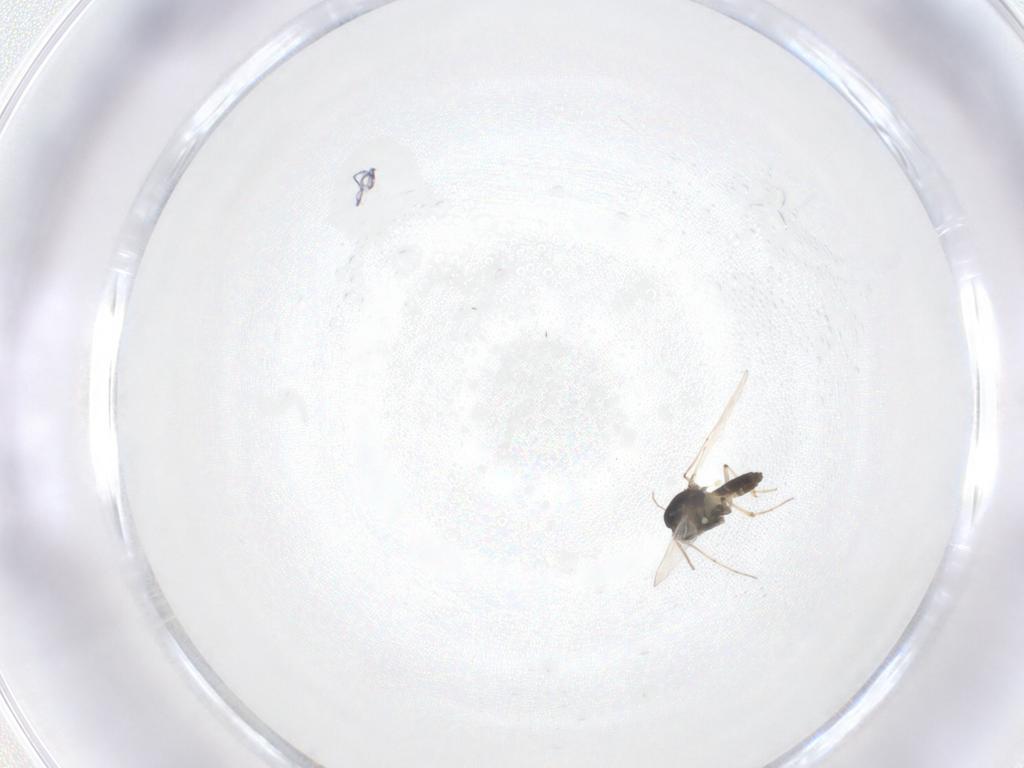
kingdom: Animalia
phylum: Arthropoda
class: Insecta
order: Diptera
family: Chironomidae
